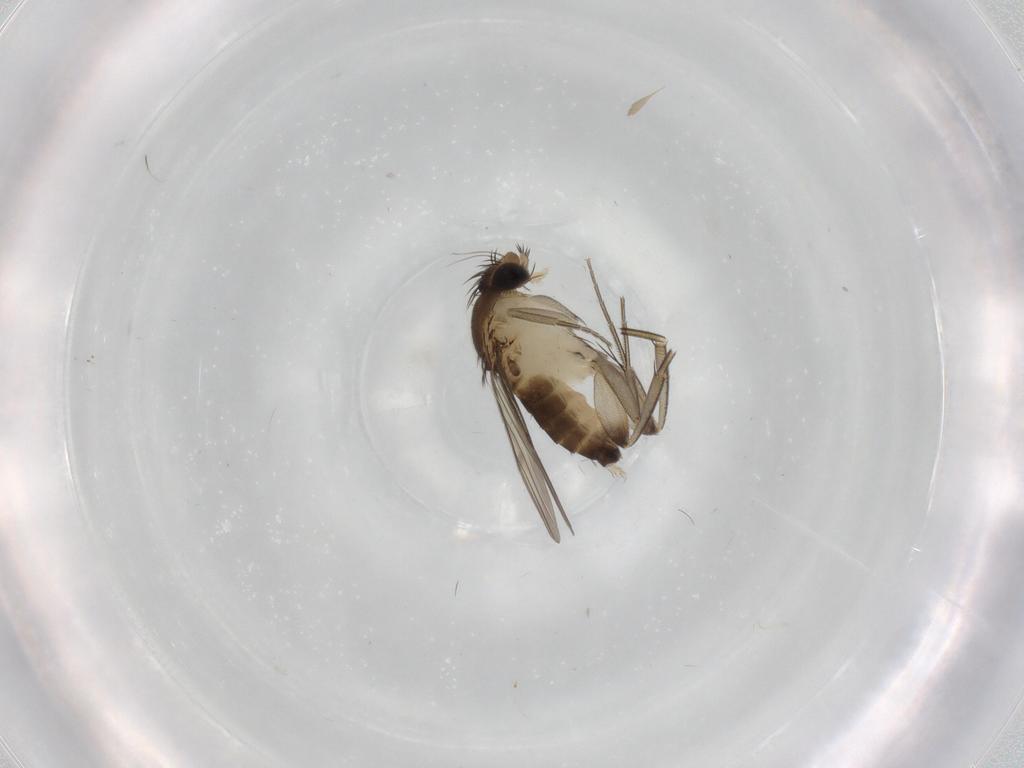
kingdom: Animalia
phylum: Arthropoda
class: Insecta
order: Diptera
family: Phoridae
